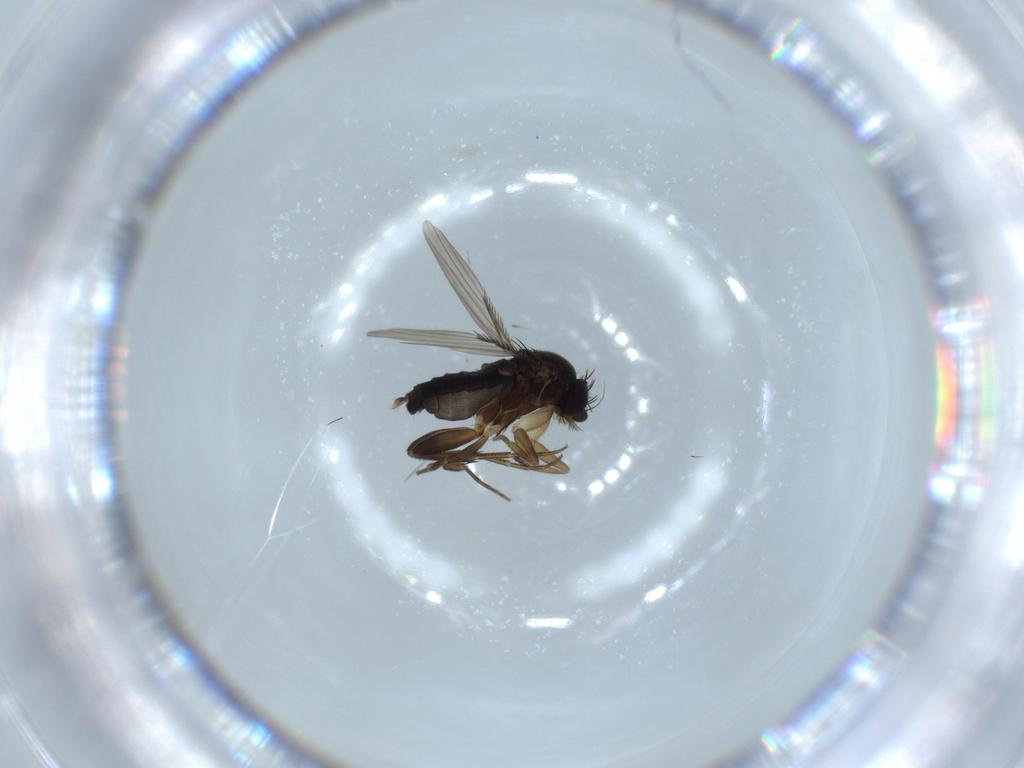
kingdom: Animalia
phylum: Arthropoda
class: Insecta
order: Diptera
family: Phoridae
